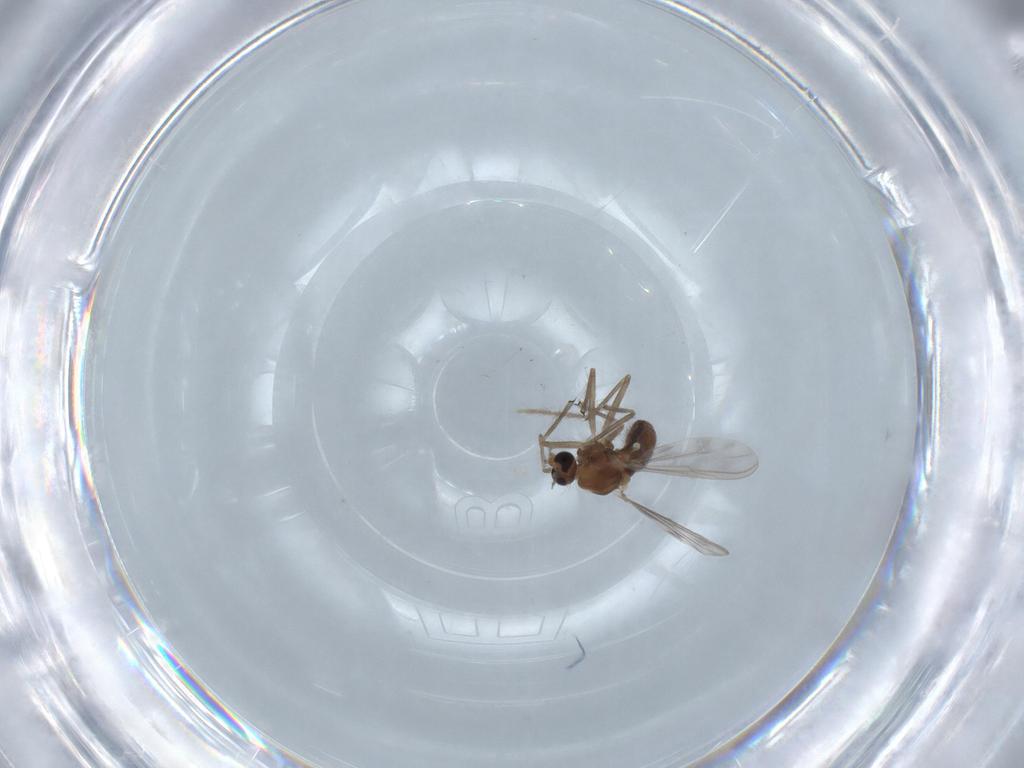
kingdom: Animalia
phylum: Arthropoda
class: Insecta
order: Diptera
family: Chironomidae
